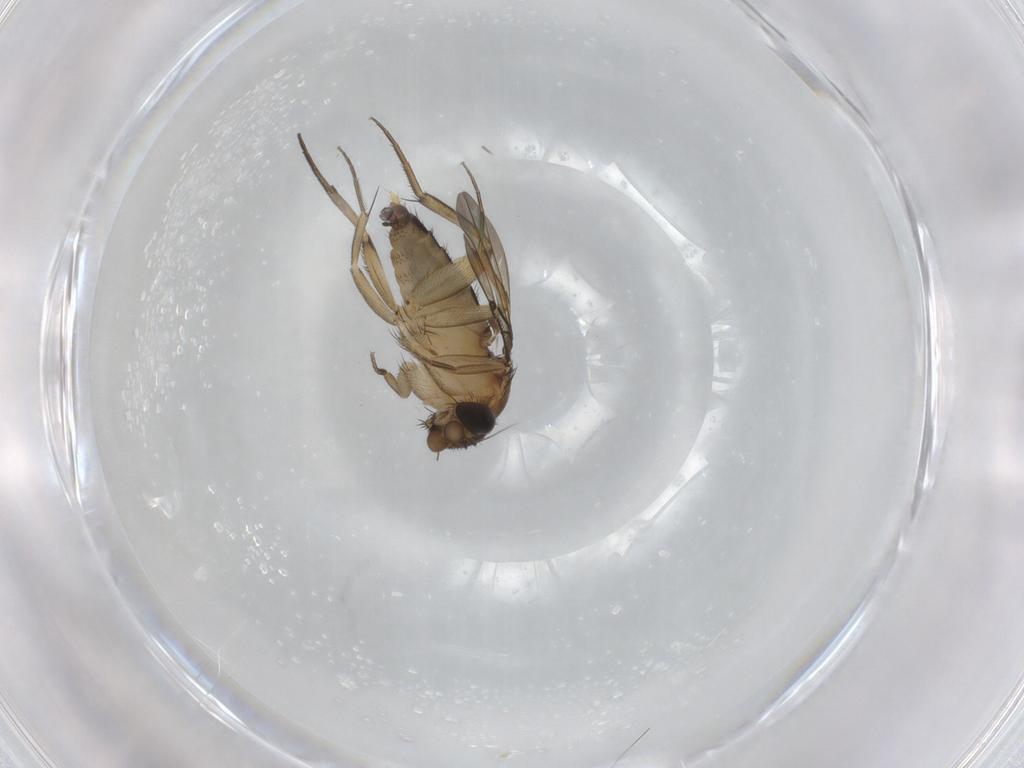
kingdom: Animalia
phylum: Arthropoda
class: Insecta
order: Diptera
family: Phoridae
